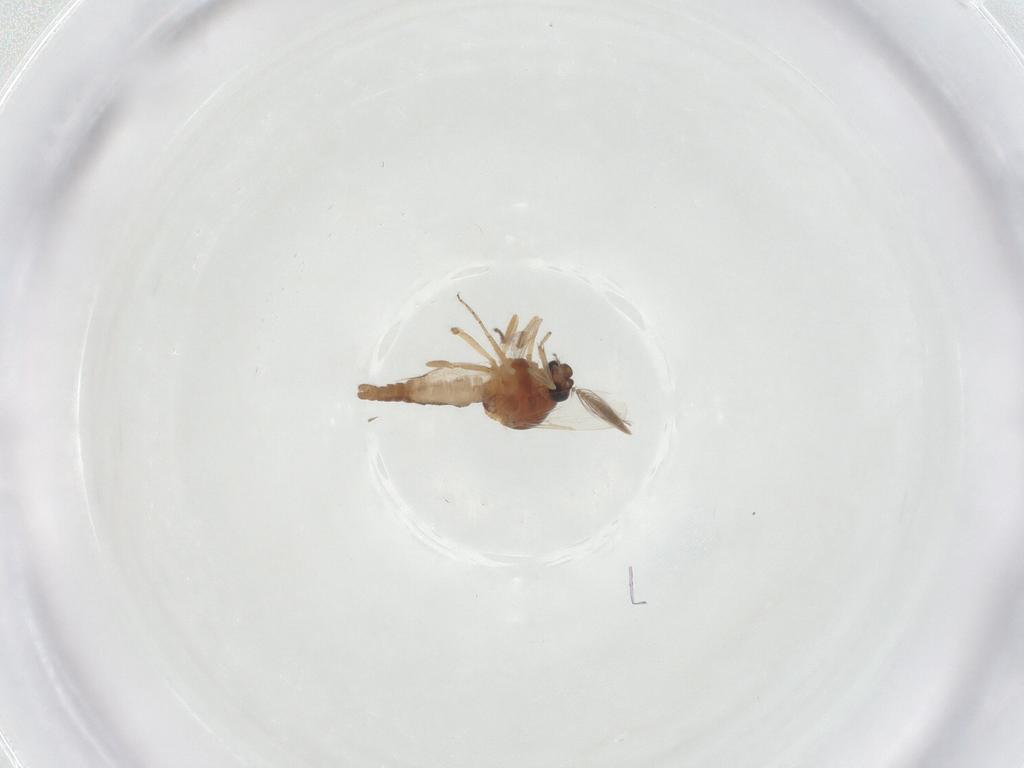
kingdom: Animalia
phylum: Arthropoda
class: Insecta
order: Diptera
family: Ceratopogonidae
